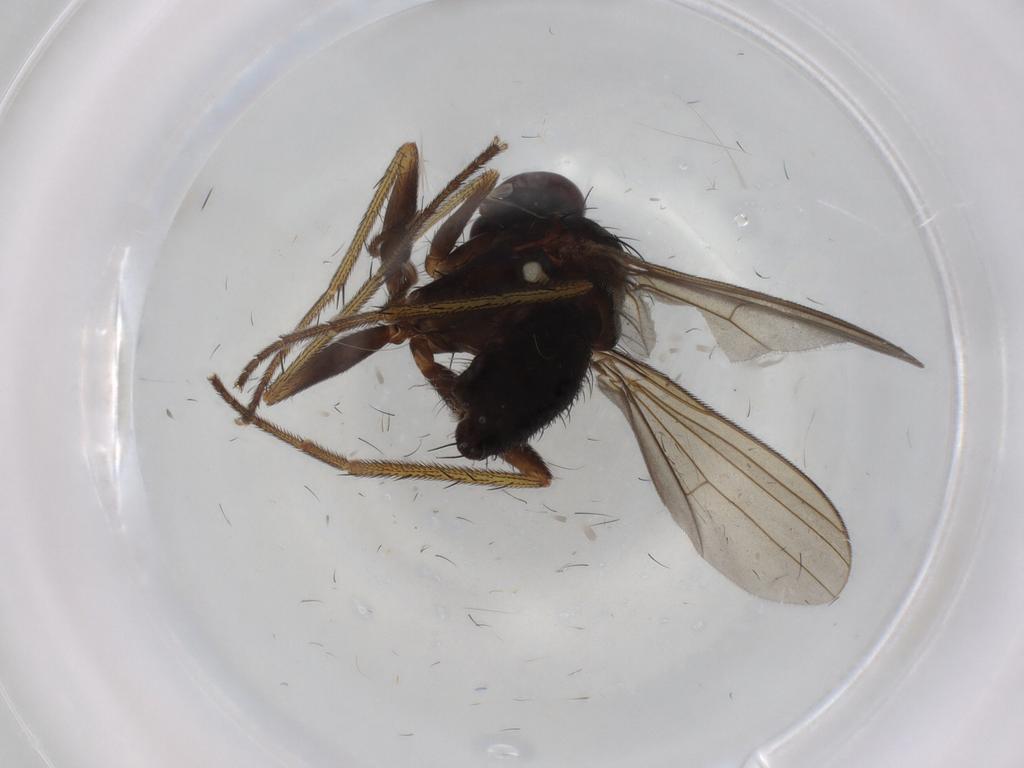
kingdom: Animalia
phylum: Arthropoda
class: Insecta
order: Diptera
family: Dolichopodidae
